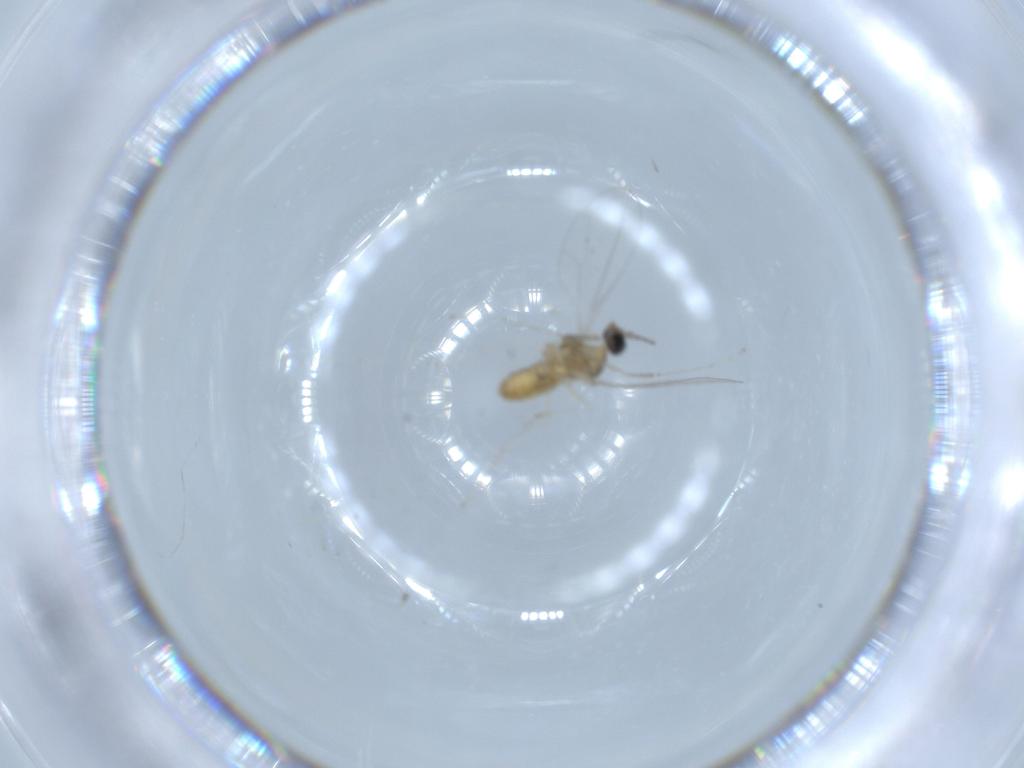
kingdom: Animalia
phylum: Arthropoda
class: Insecta
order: Diptera
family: Cecidomyiidae
